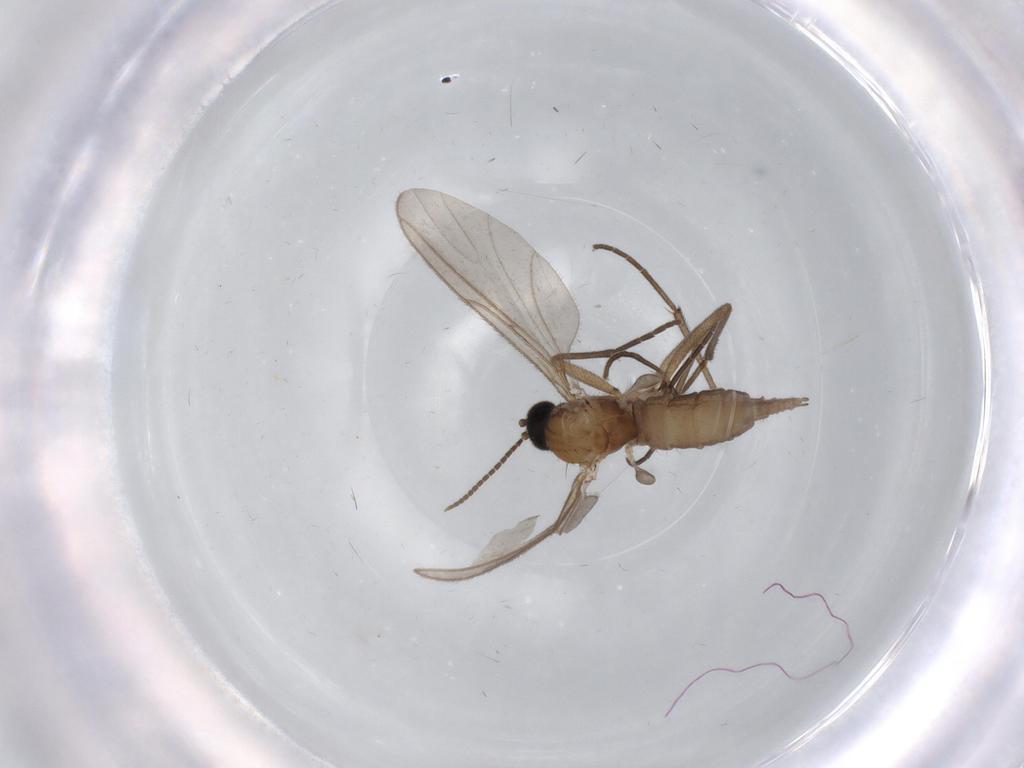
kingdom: Animalia
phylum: Arthropoda
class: Insecta
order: Diptera
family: Sciaridae
